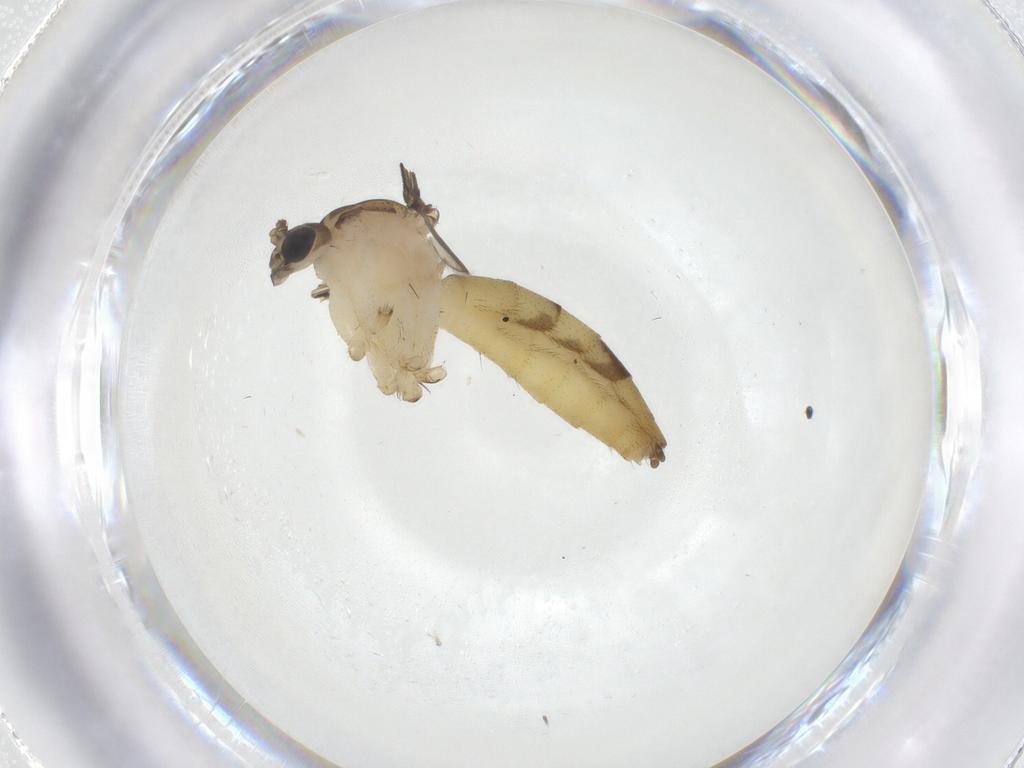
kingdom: Animalia
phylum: Arthropoda
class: Insecta
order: Diptera
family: Mycetophilidae
